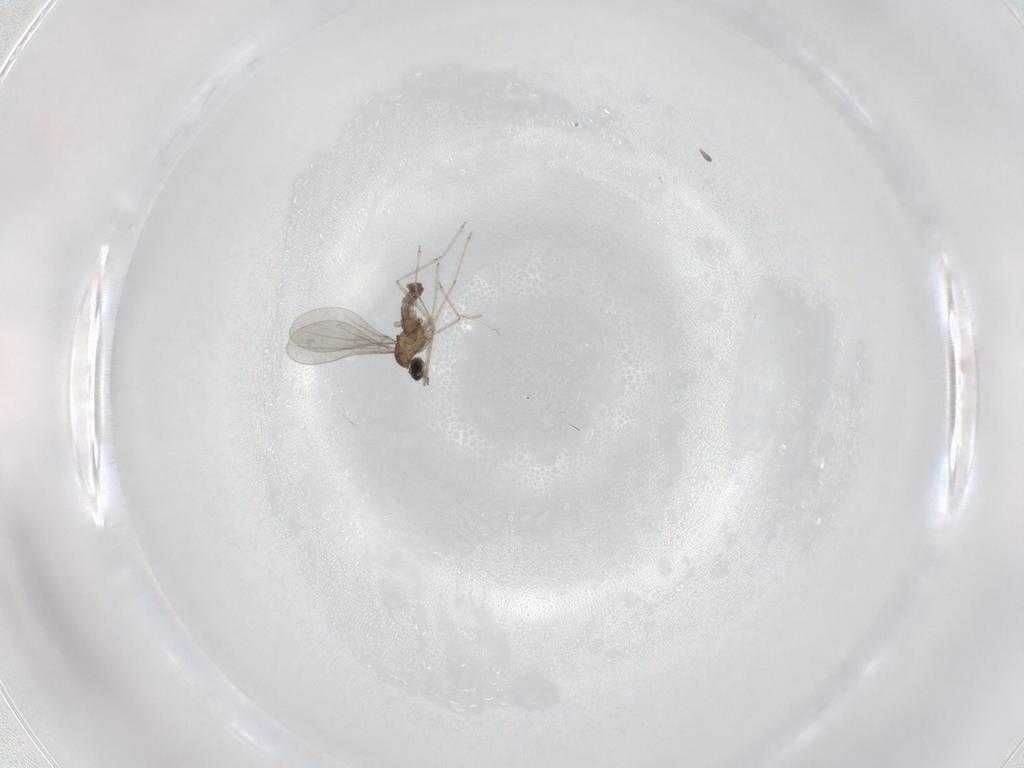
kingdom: Animalia
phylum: Arthropoda
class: Insecta
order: Diptera
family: Cecidomyiidae
